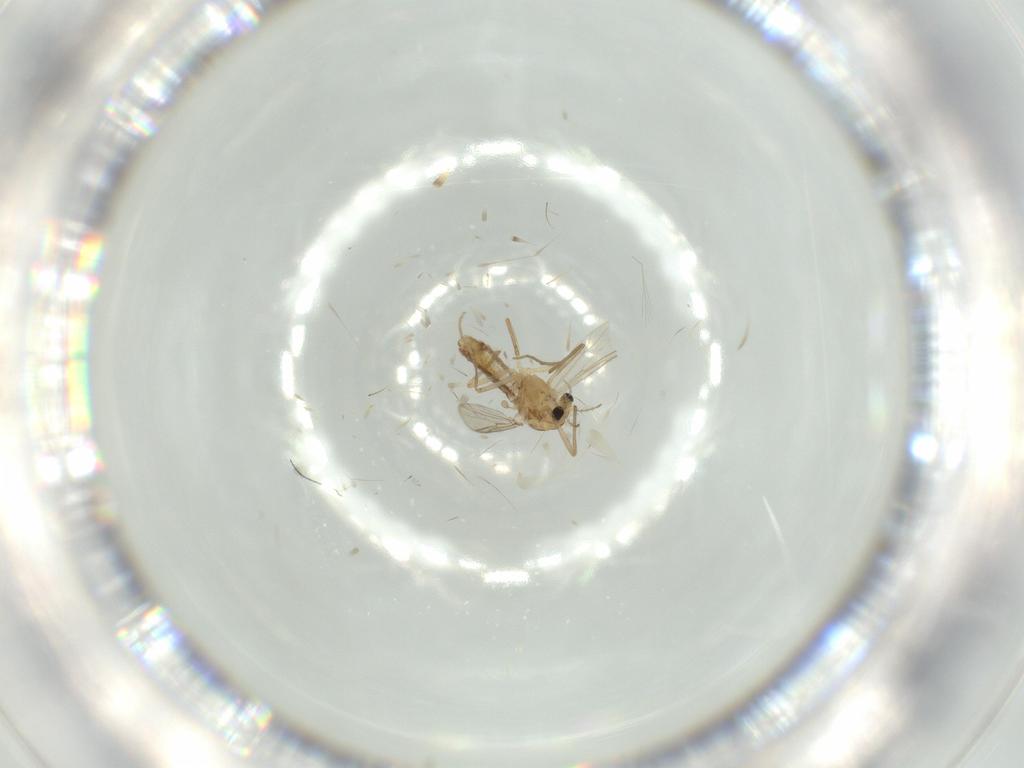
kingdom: Animalia
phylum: Arthropoda
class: Insecta
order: Diptera
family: Chironomidae
